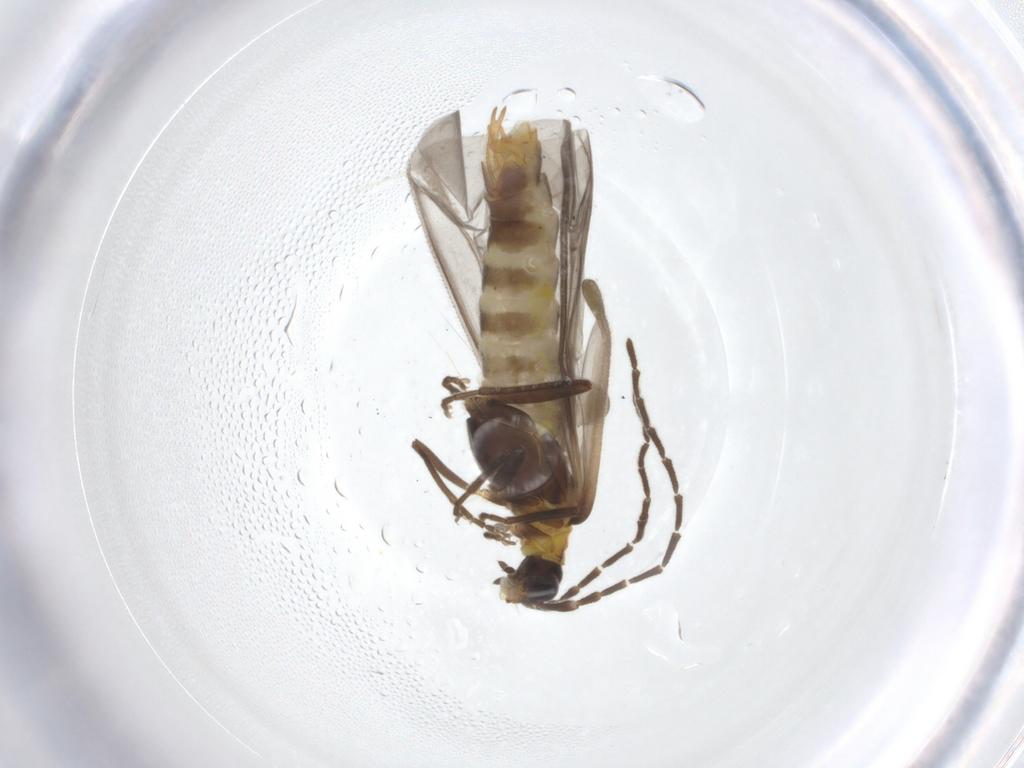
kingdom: Animalia
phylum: Arthropoda
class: Insecta
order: Coleoptera
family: Cantharidae
